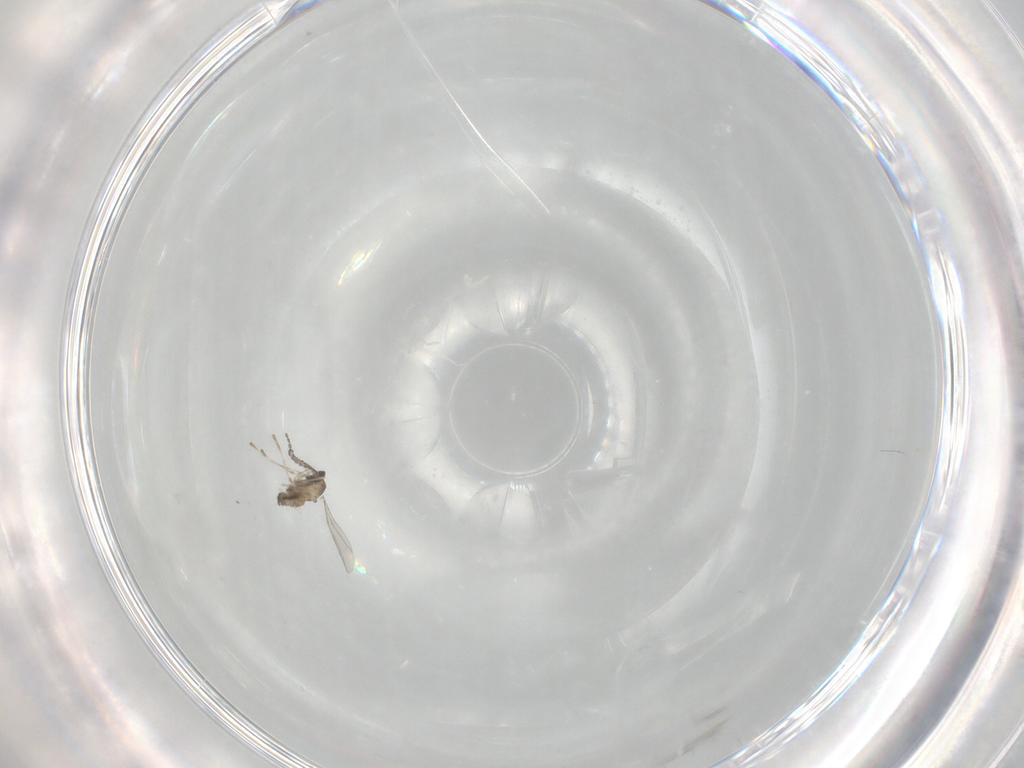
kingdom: Animalia
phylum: Arthropoda
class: Insecta
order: Diptera
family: Cecidomyiidae
